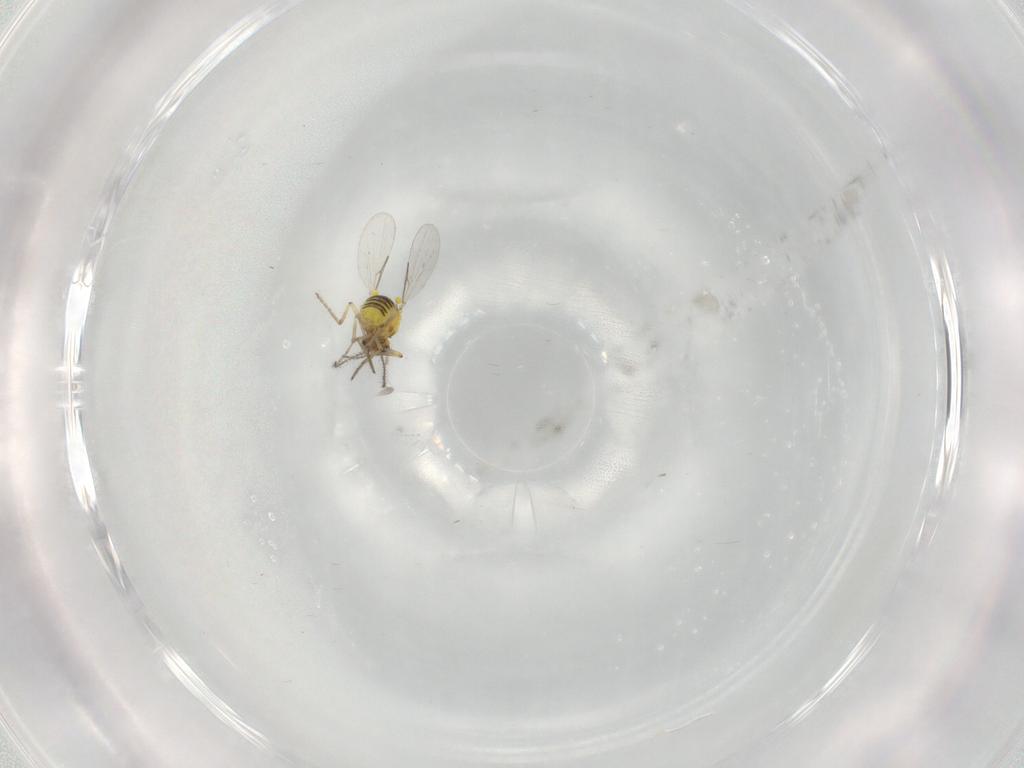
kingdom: Animalia
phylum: Arthropoda
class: Insecta
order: Diptera
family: Ceratopogonidae
